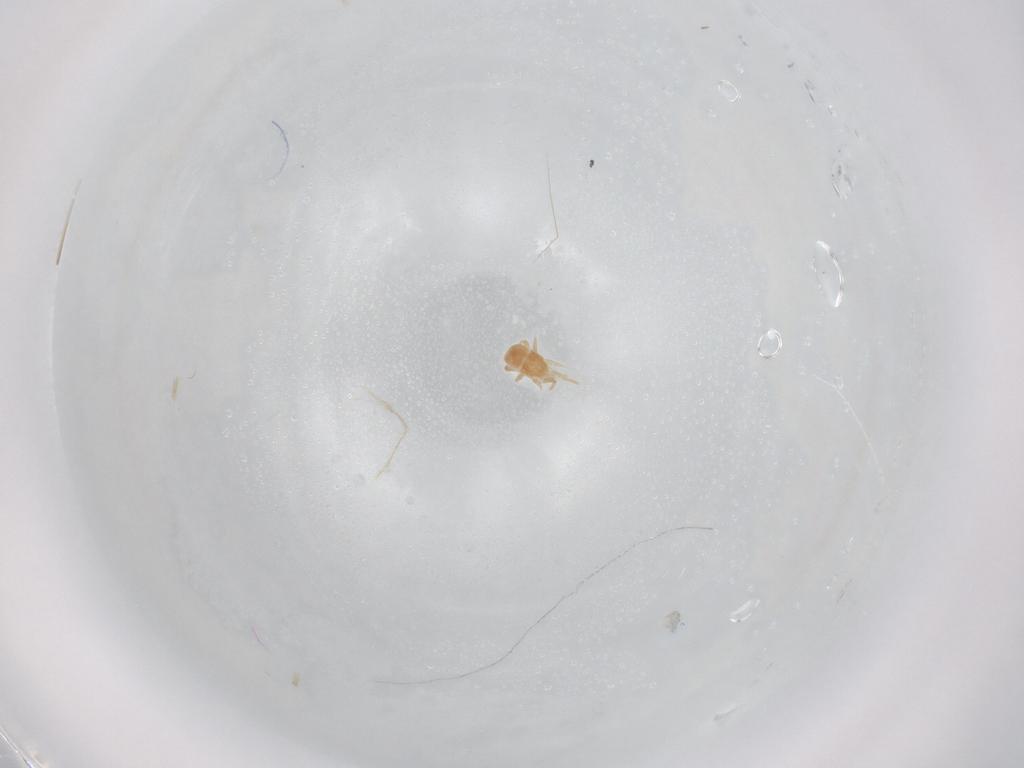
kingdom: Animalia
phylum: Arthropoda
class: Arachnida
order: Mesostigmata
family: Digamasellidae
